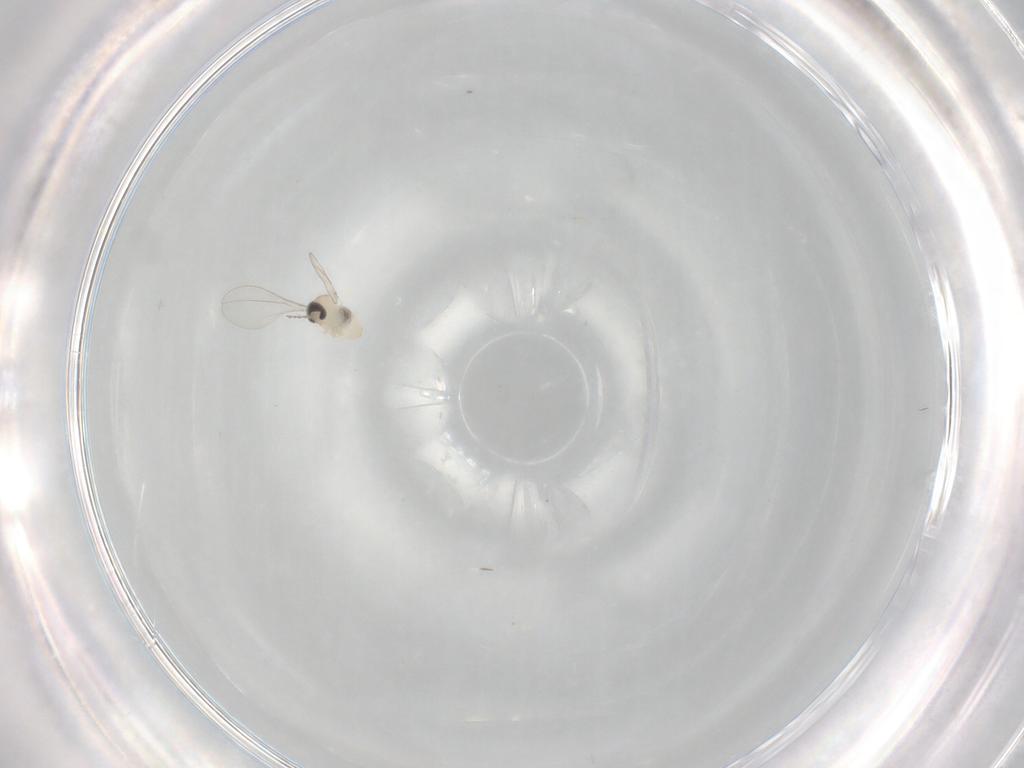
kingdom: Animalia
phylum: Arthropoda
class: Insecta
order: Diptera
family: Cecidomyiidae
